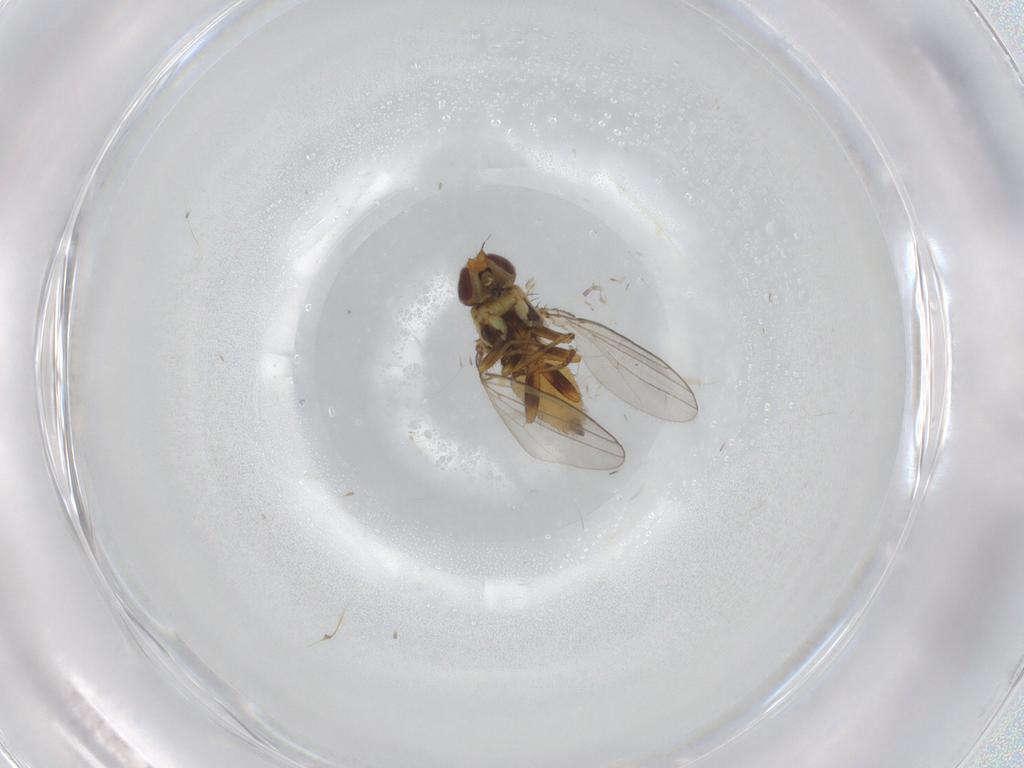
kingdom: Animalia
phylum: Arthropoda
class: Insecta
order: Diptera
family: Chloropidae
